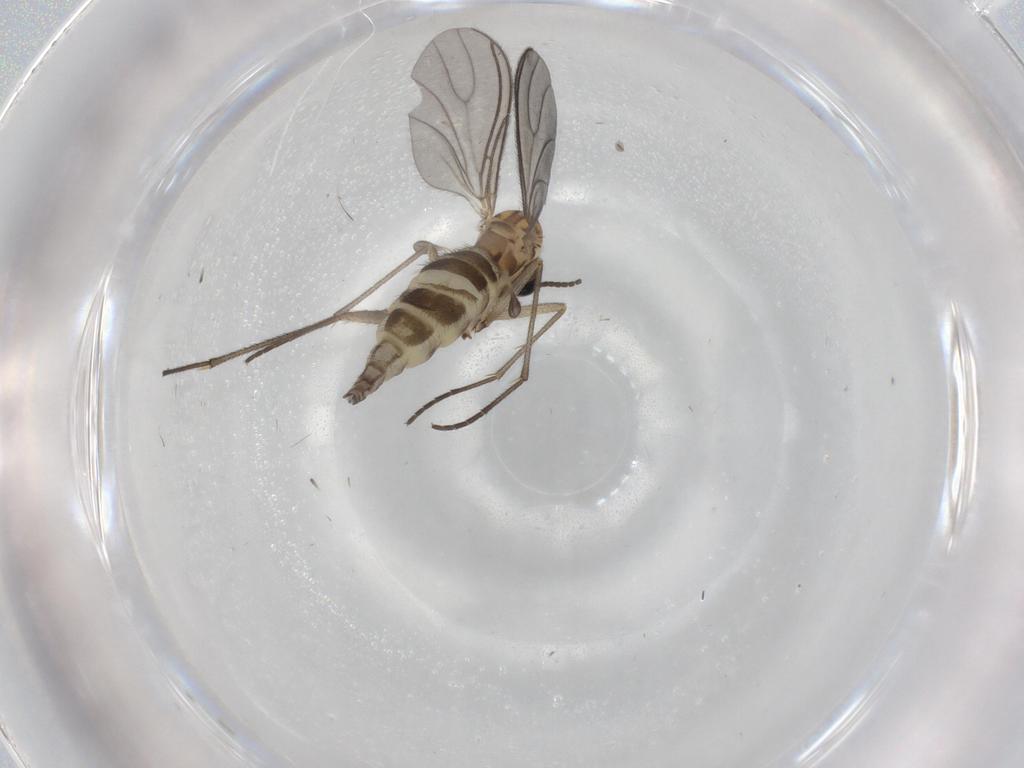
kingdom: Animalia
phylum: Arthropoda
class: Insecta
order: Diptera
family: Sciaridae
